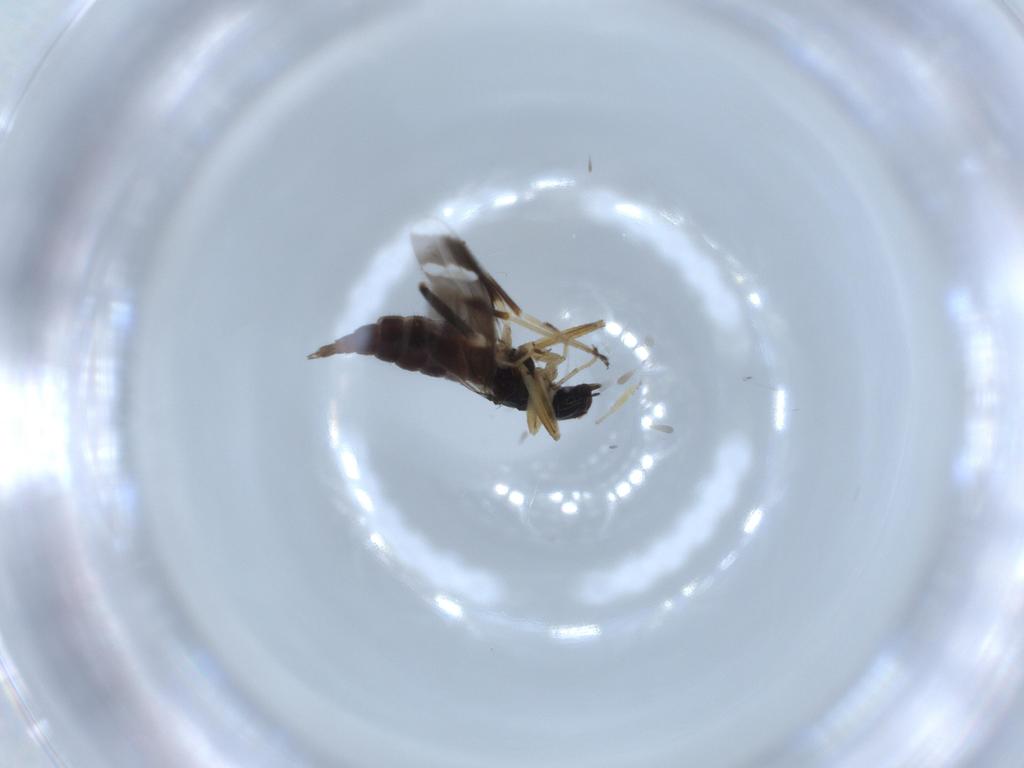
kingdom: Animalia
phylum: Arthropoda
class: Insecta
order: Diptera
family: Hybotidae
